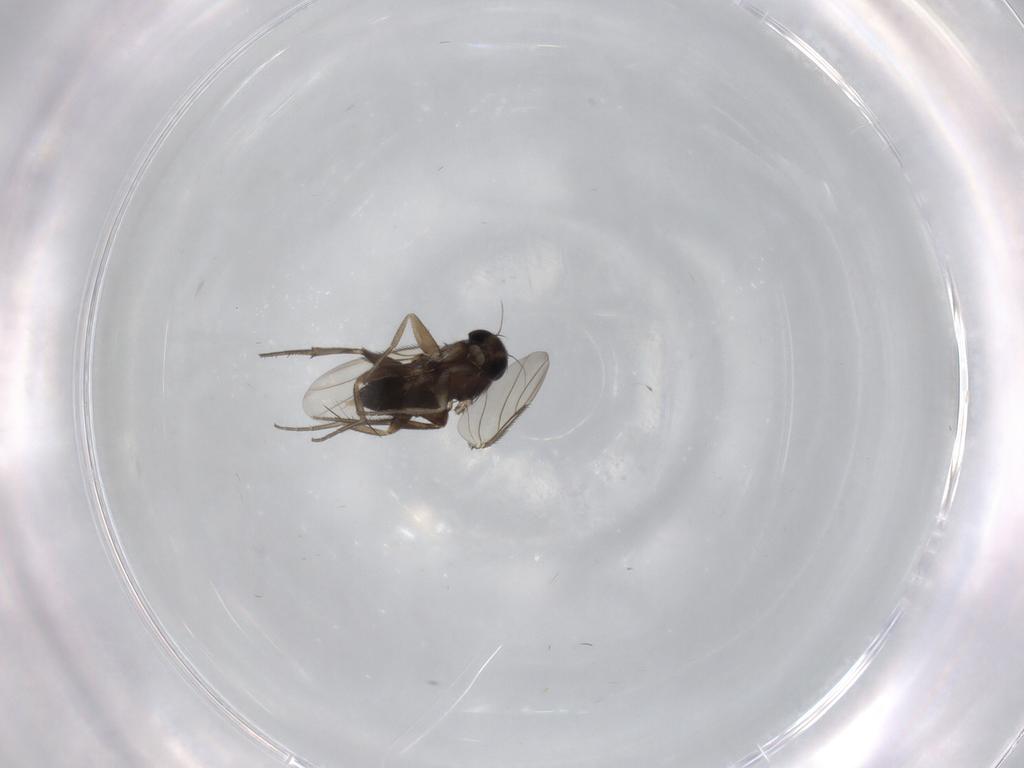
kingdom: Animalia
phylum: Arthropoda
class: Insecta
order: Diptera
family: Phoridae
